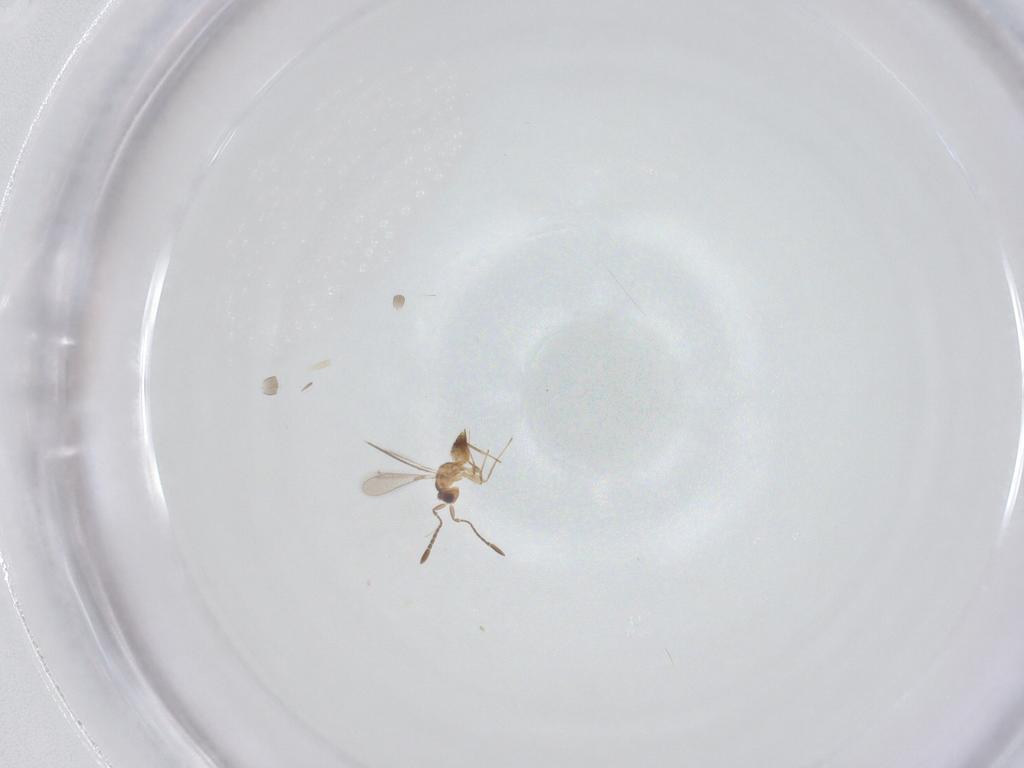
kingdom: Animalia
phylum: Arthropoda
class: Insecta
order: Hymenoptera
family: Mymaridae
